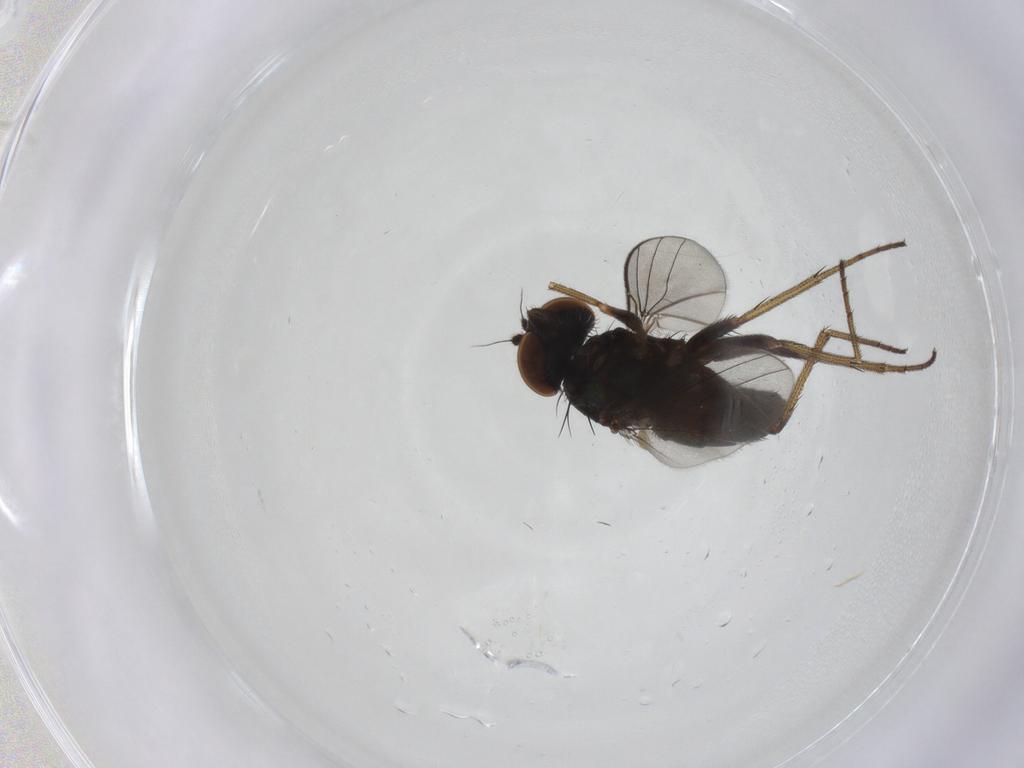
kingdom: Animalia
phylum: Arthropoda
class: Insecta
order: Diptera
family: Dolichopodidae
